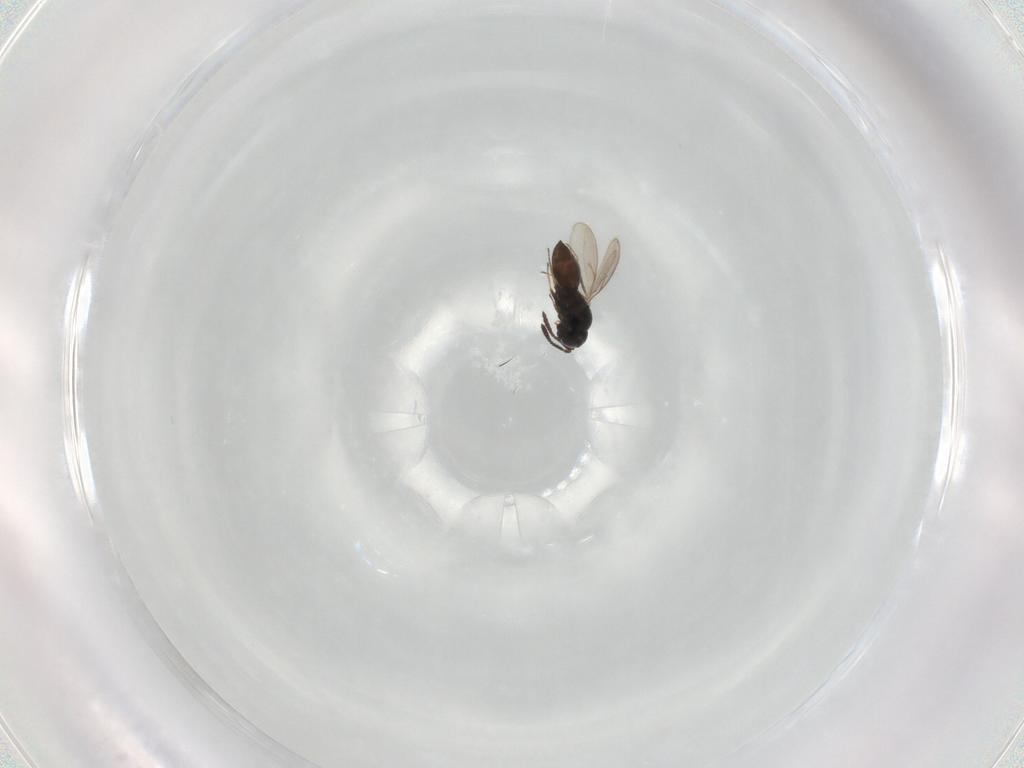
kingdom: Animalia
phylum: Arthropoda
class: Insecta
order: Hymenoptera
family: Scelionidae
